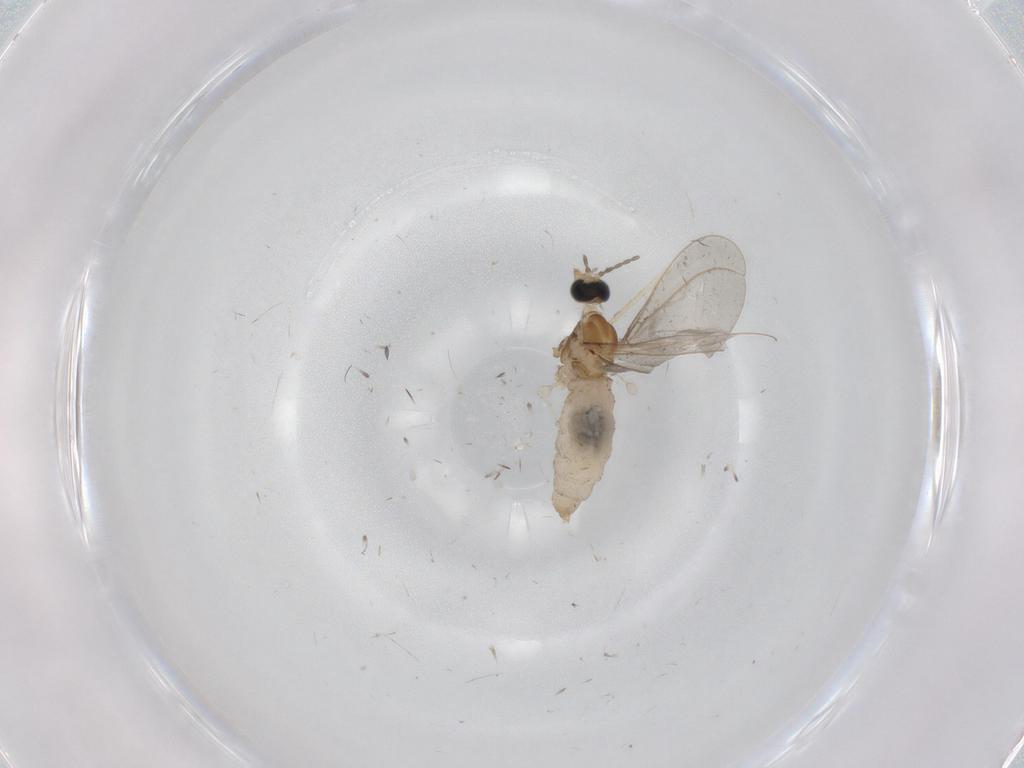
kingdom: Animalia
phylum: Arthropoda
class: Insecta
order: Diptera
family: Cecidomyiidae
